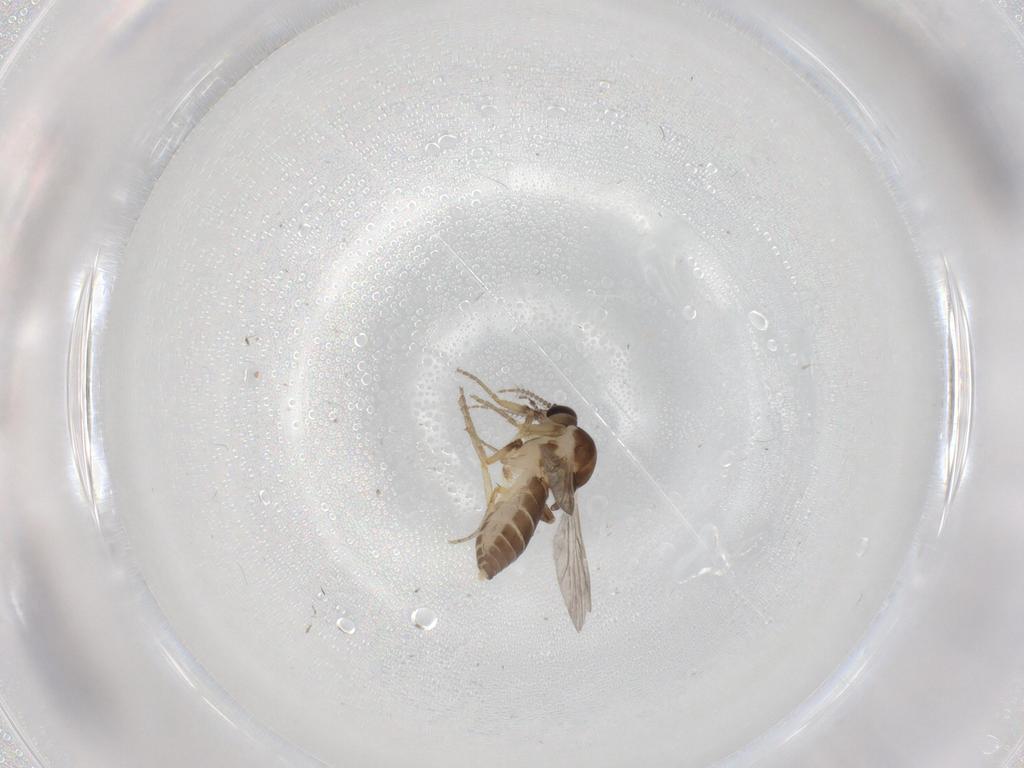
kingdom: Animalia
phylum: Arthropoda
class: Insecta
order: Diptera
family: Ceratopogonidae
